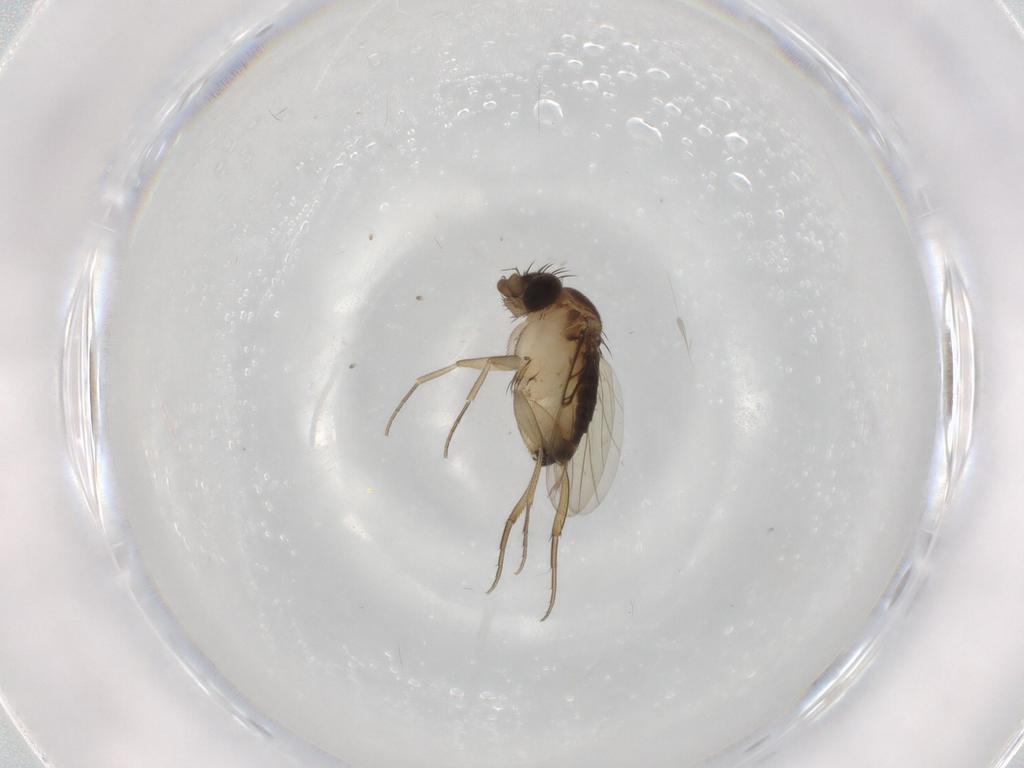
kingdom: Animalia
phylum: Arthropoda
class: Insecta
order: Diptera
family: Phoridae
